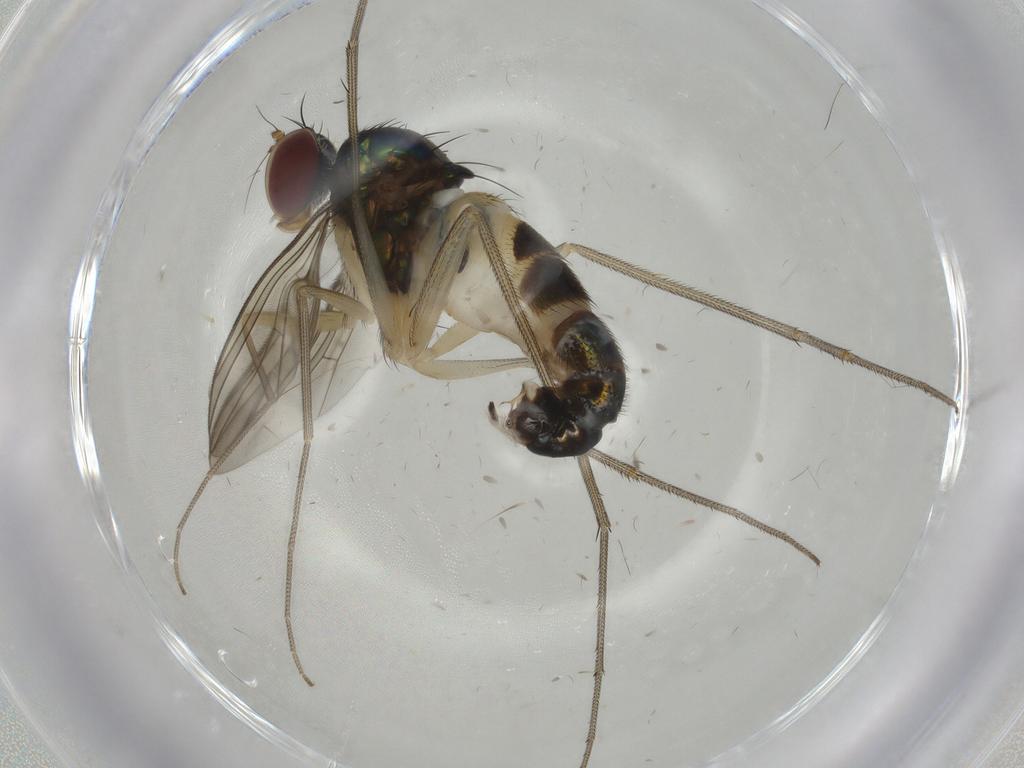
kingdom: Animalia
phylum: Arthropoda
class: Insecta
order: Diptera
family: Dolichopodidae
